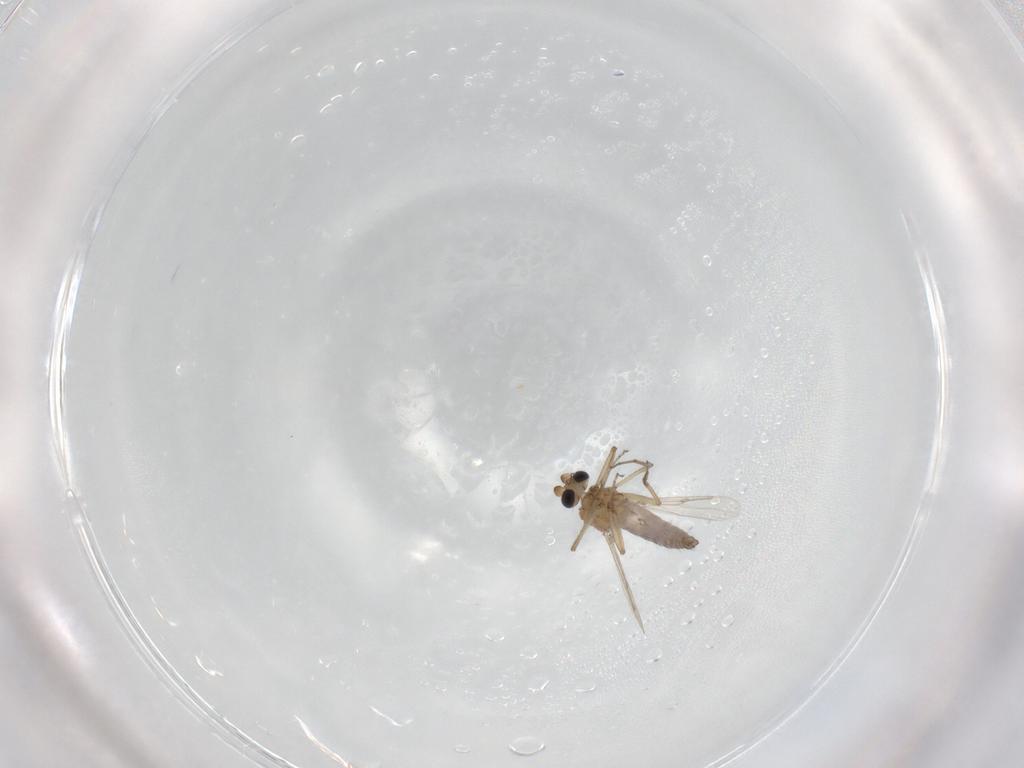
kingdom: Animalia
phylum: Arthropoda
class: Insecta
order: Diptera
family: Ceratopogonidae
